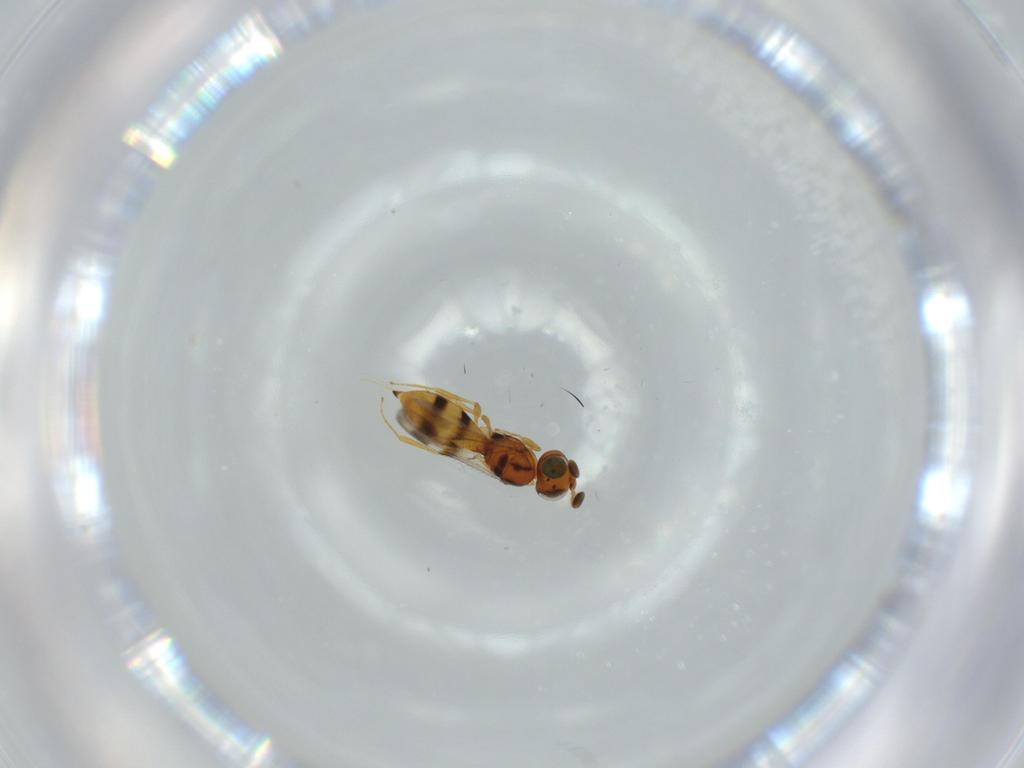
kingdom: Animalia
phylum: Arthropoda
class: Insecta
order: Hymenoptera
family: Scelionidae
